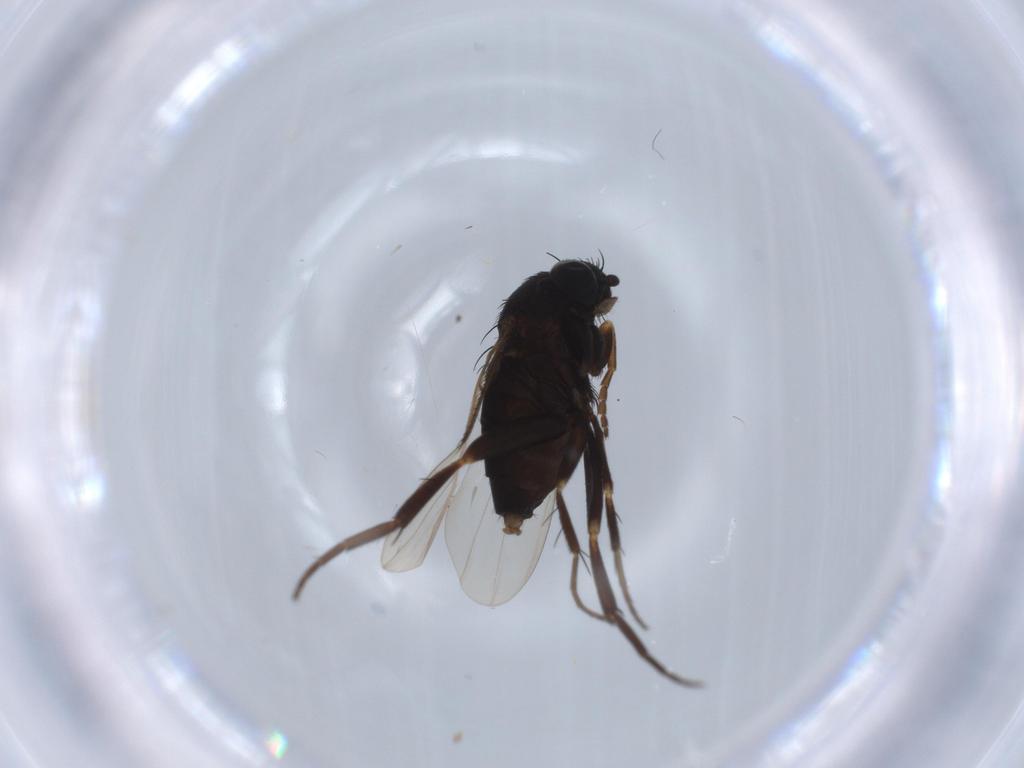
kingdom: Animalia
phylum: Arthropoda
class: Insecta
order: Diptera
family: Muscidae
